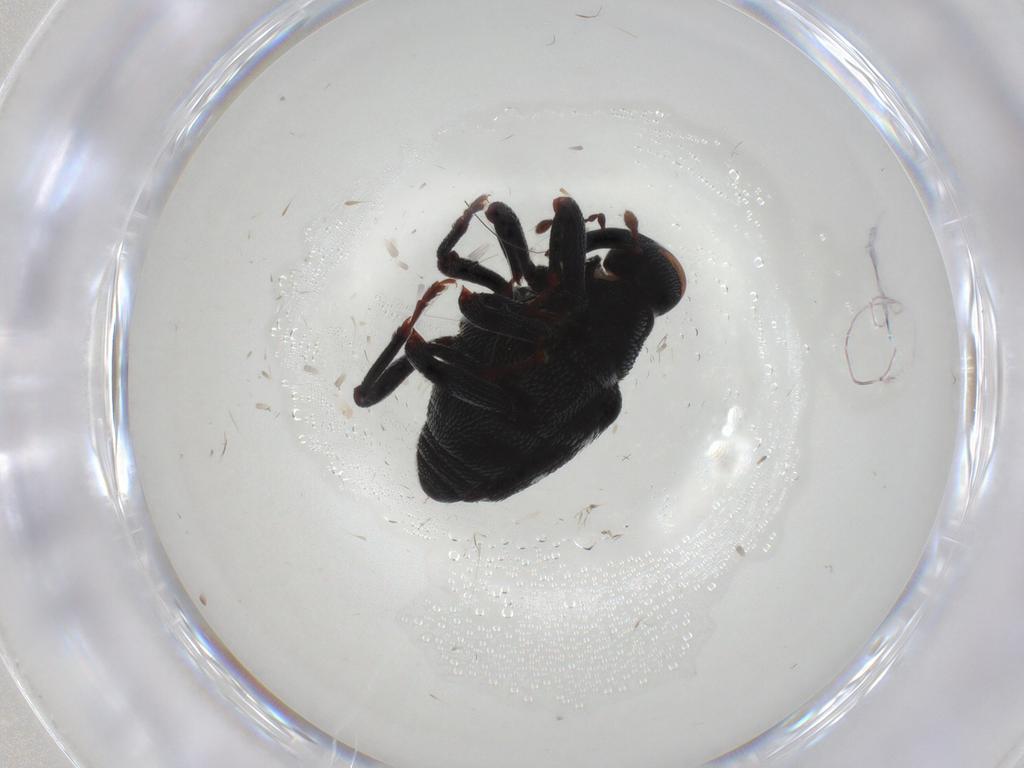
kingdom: Animalia
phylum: Arthropoda
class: Insecta
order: Coleoptera
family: Curculionidae
